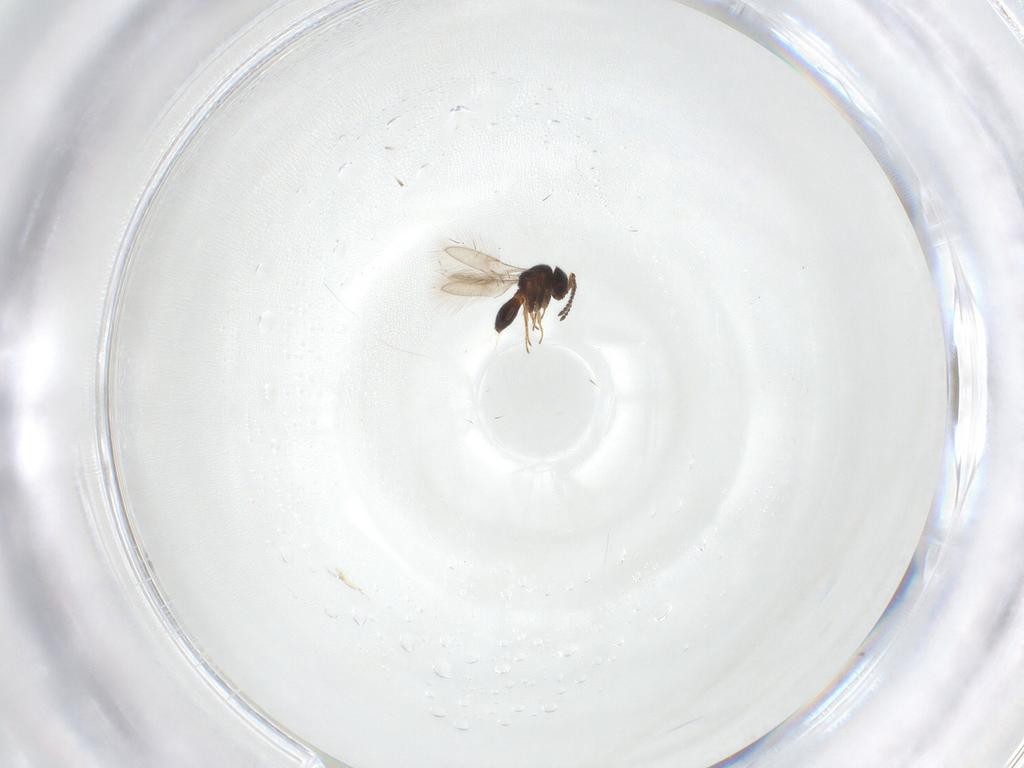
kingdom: Animalia
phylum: Arthropoda
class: Insecta
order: Hymenoptera
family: Scelionidae
